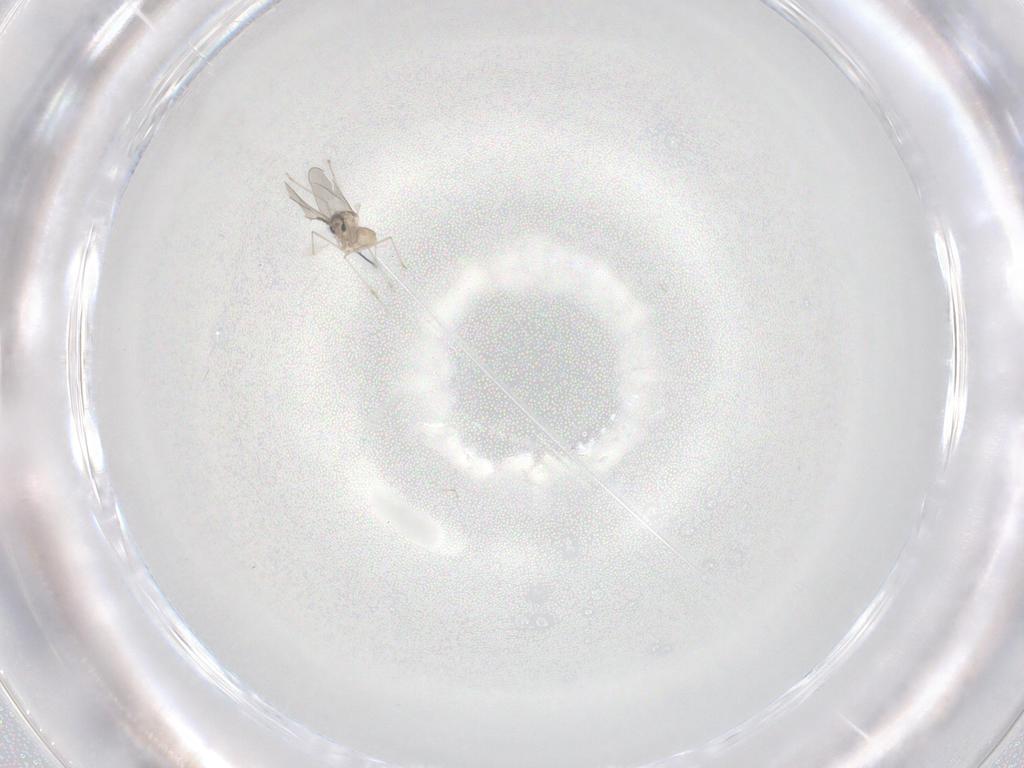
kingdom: Animalia
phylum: Arthropoda
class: Insecta
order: Diptera
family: Cecidomyiidae
